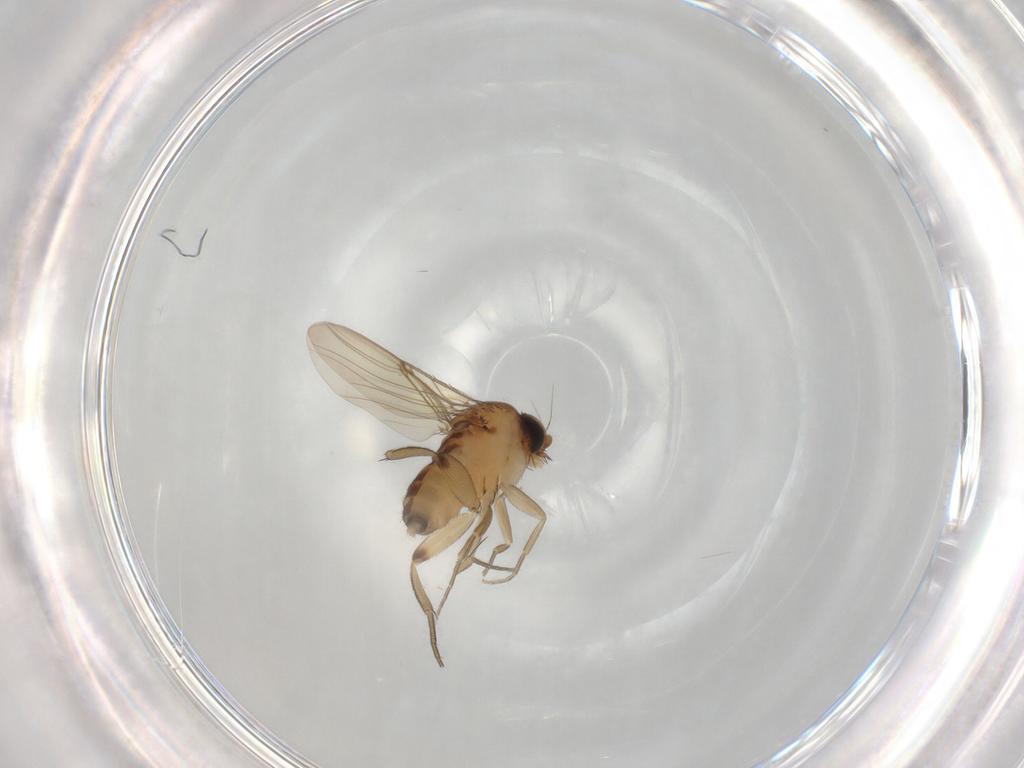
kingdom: Animalia
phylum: Arthropoda
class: Insecta
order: Diptera
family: Phoridae
